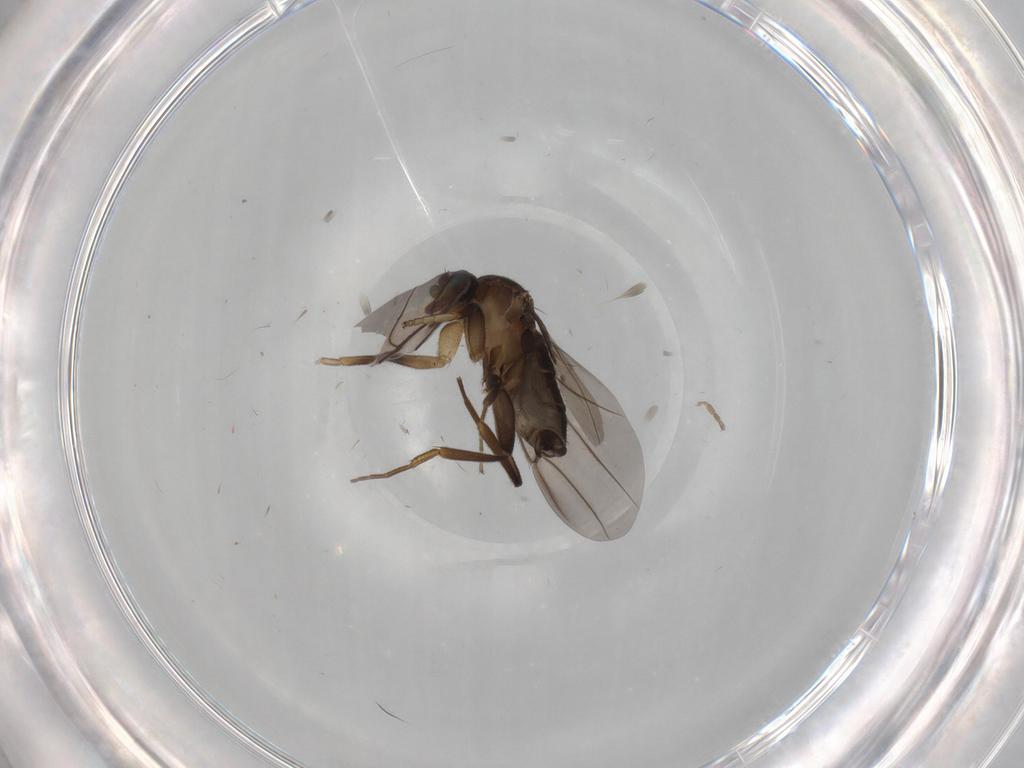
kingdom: Animalia
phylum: Arthropoda
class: Insecta
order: Diptera
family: Phoridae
